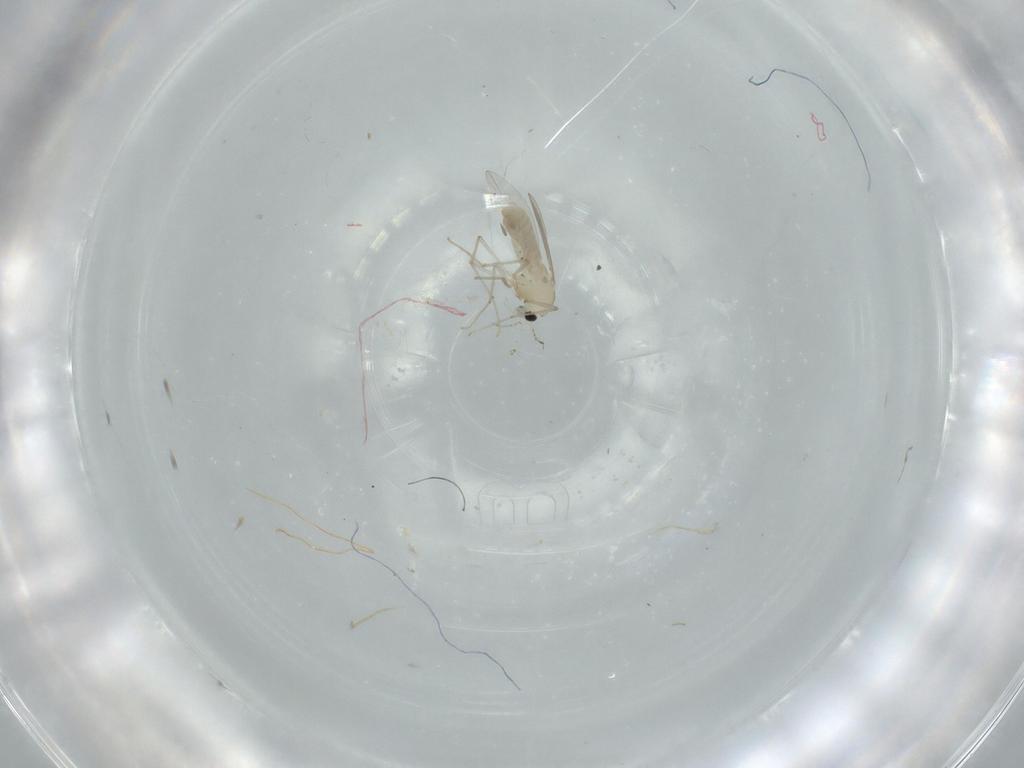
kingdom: Animalia
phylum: Arthropoda
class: Insecta
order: Diptera
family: Chironomidae
